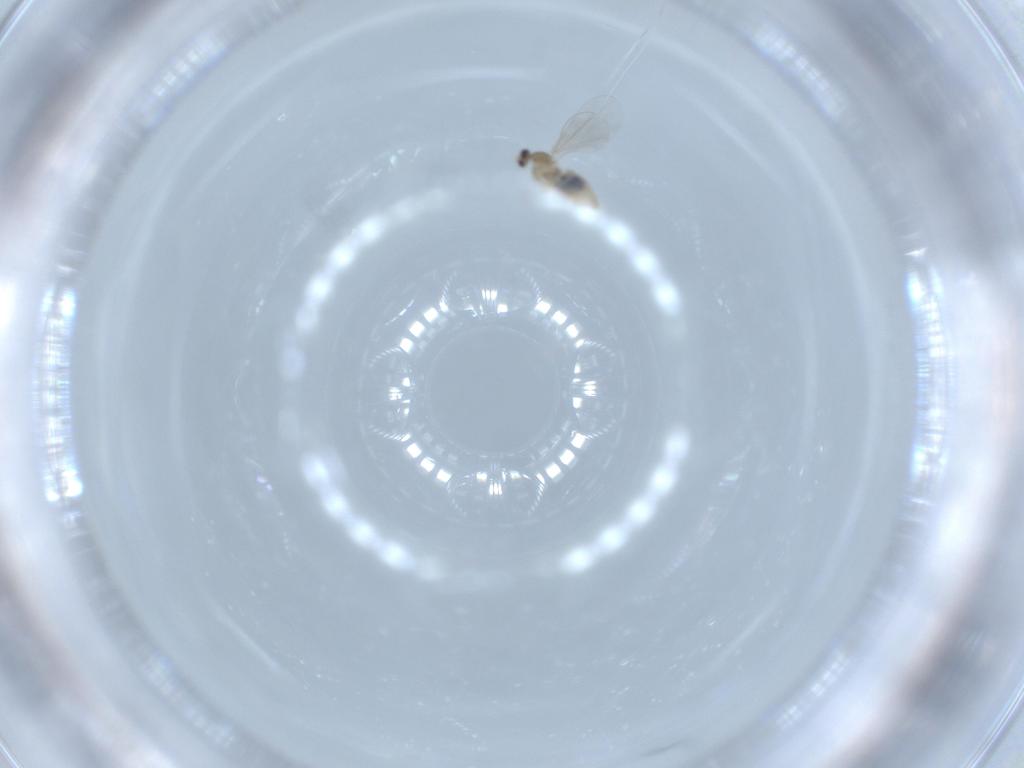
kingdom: Animalia
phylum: Arthropoda
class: Insecta
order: Diptera
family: Cecidomyiidae
